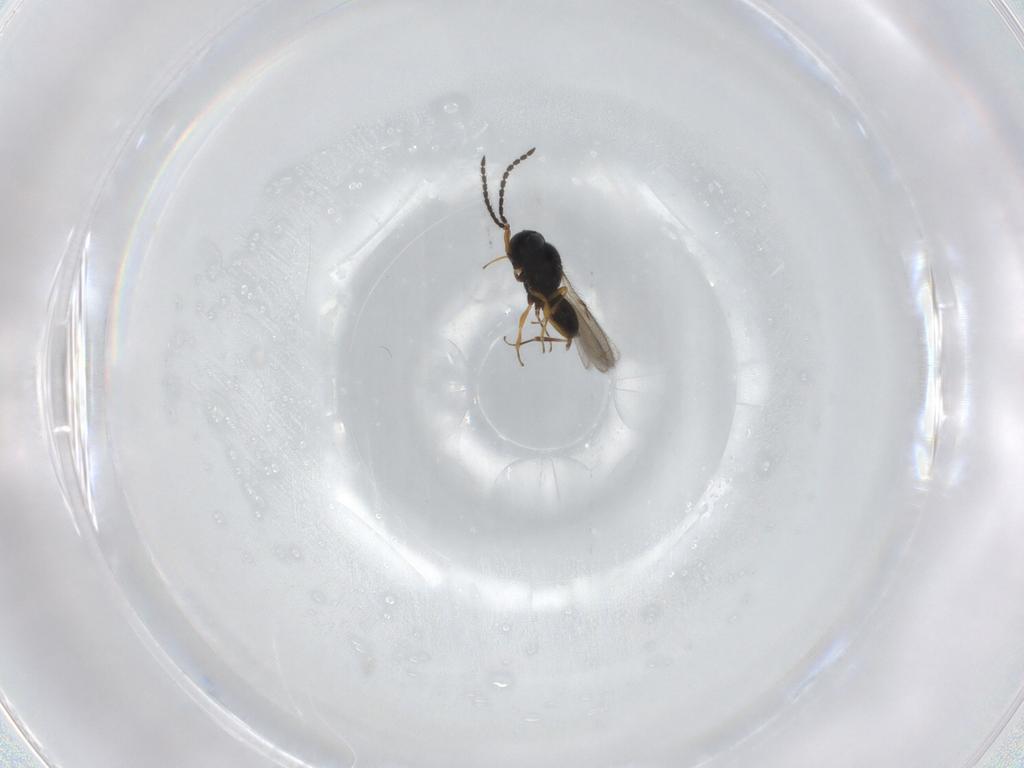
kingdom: Animalia
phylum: Arthropoda
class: Insecta
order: Hymenoptera
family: Scelionidae
